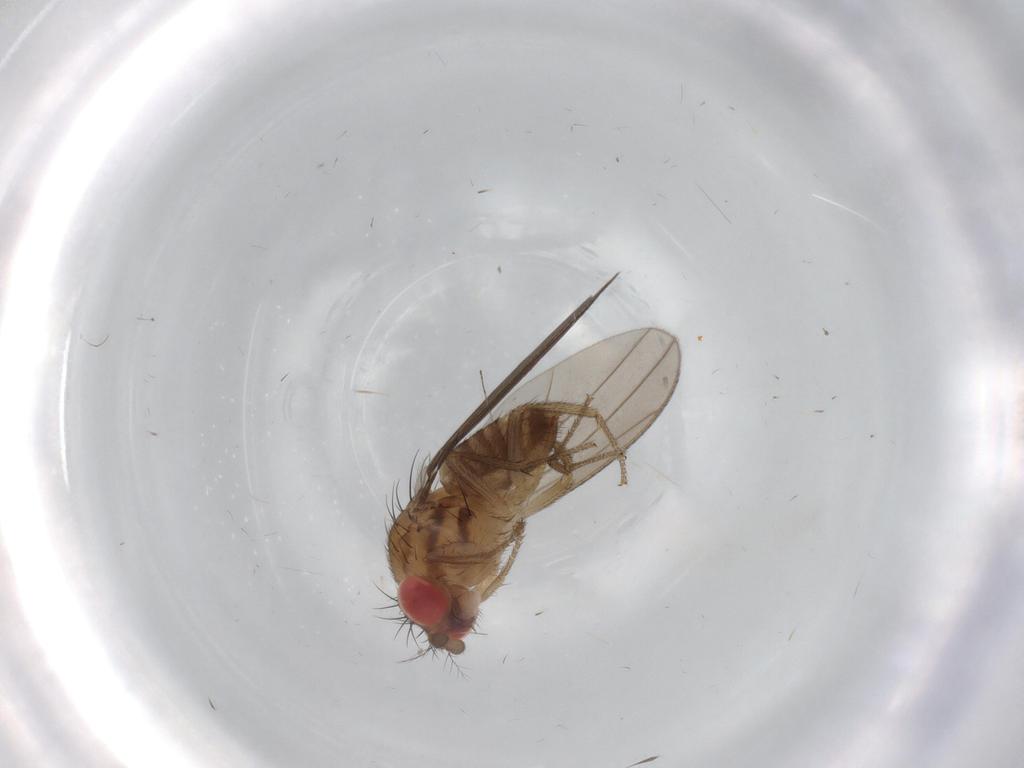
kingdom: Animalia
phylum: Arthropoda
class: Insecta
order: Diptera
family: Drosophilidae
